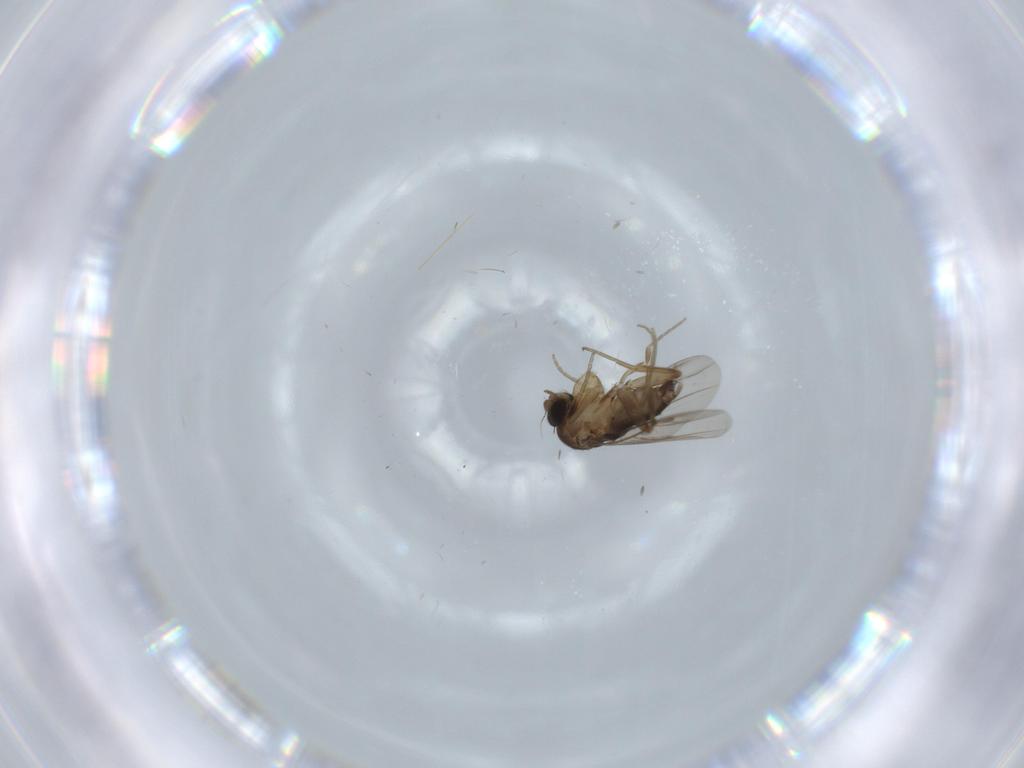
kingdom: Animalia
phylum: Arthropoda
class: Insecta
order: Diptera
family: Phoridae
